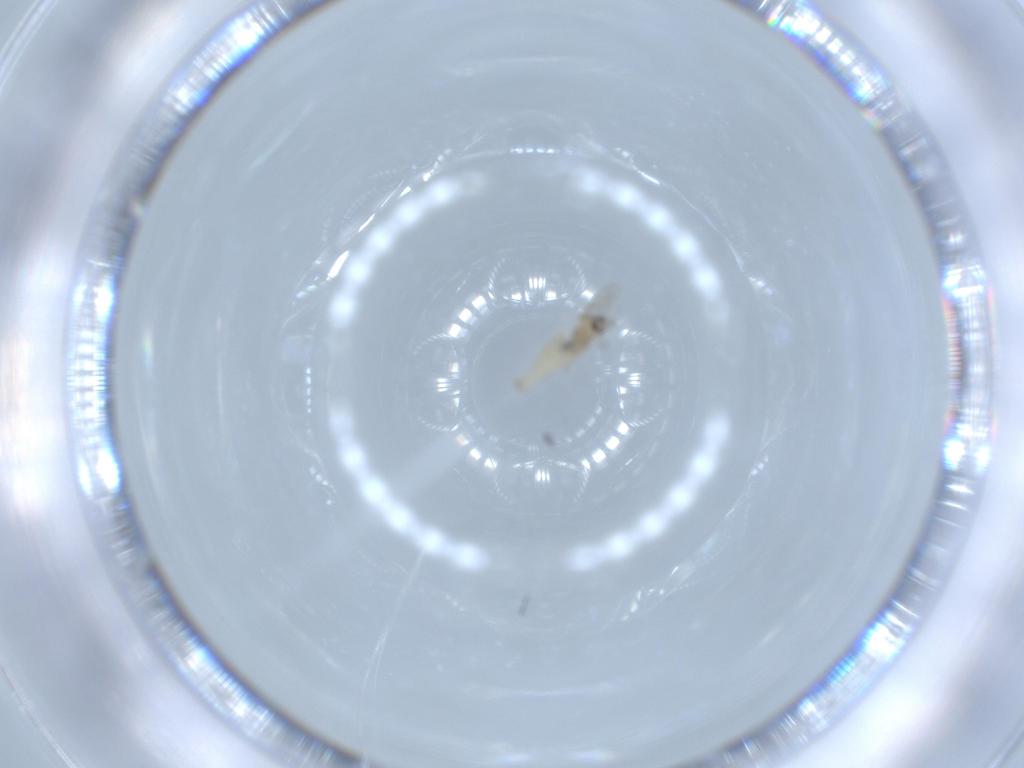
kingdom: Animalia
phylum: Arthropoda
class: Insecta
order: Diptera
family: Cecidomyiidae
